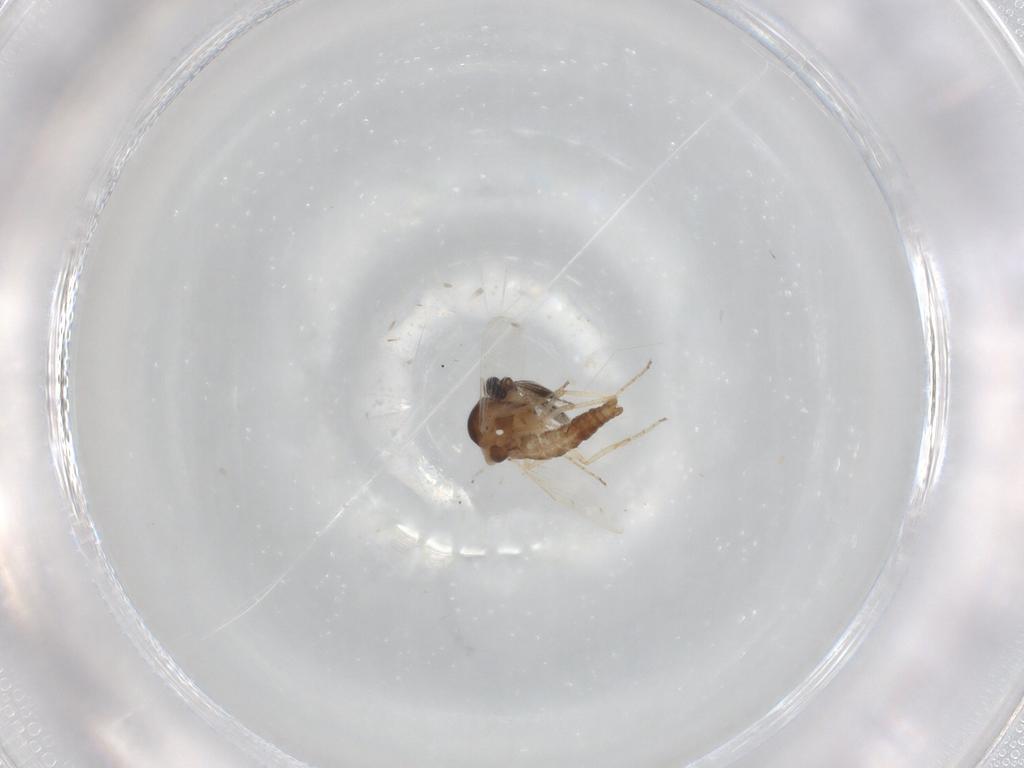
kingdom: Animalia
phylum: Arthropoda
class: Insecta
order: Diptera
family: Ceratopogonidae
